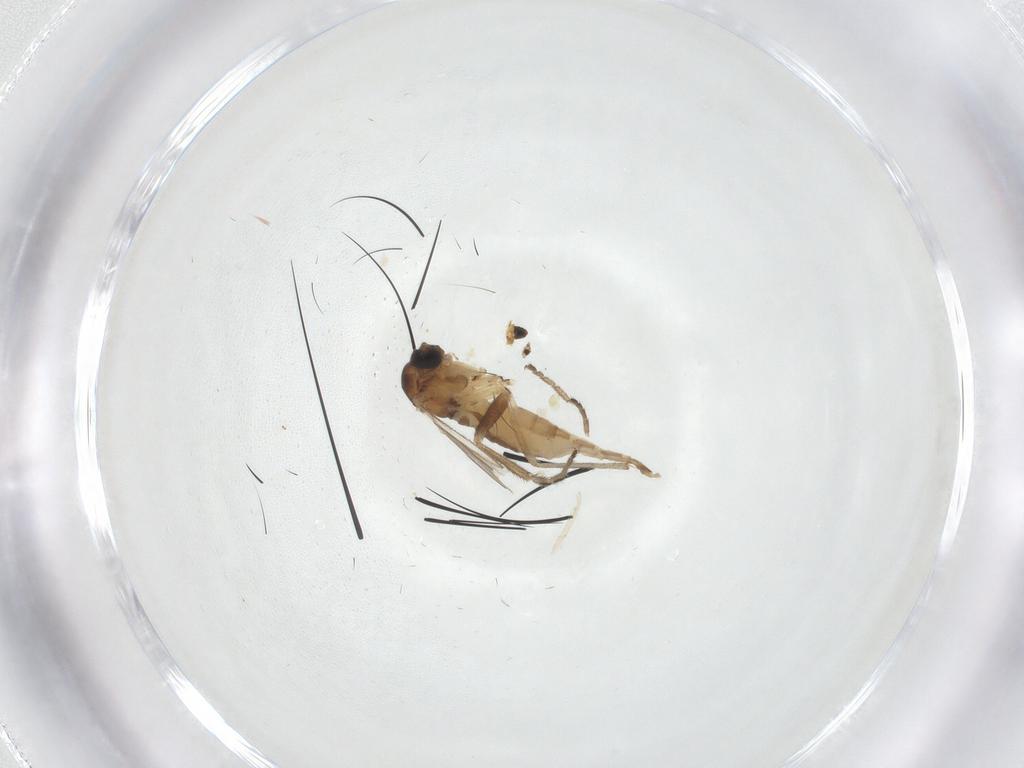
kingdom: Animalia
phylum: Arthropoda
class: Insecta
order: Diptera
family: Sciaridae
